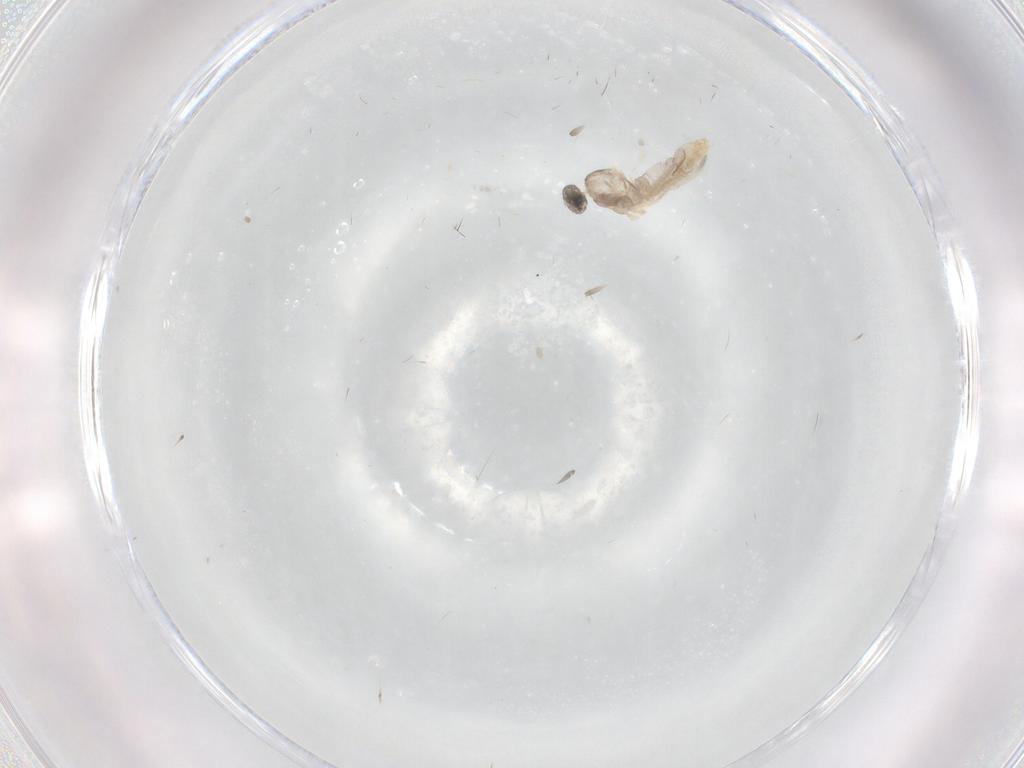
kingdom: Animalia
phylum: Arthropoda
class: Insecta
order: Diptera
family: Cecidomyiidae
